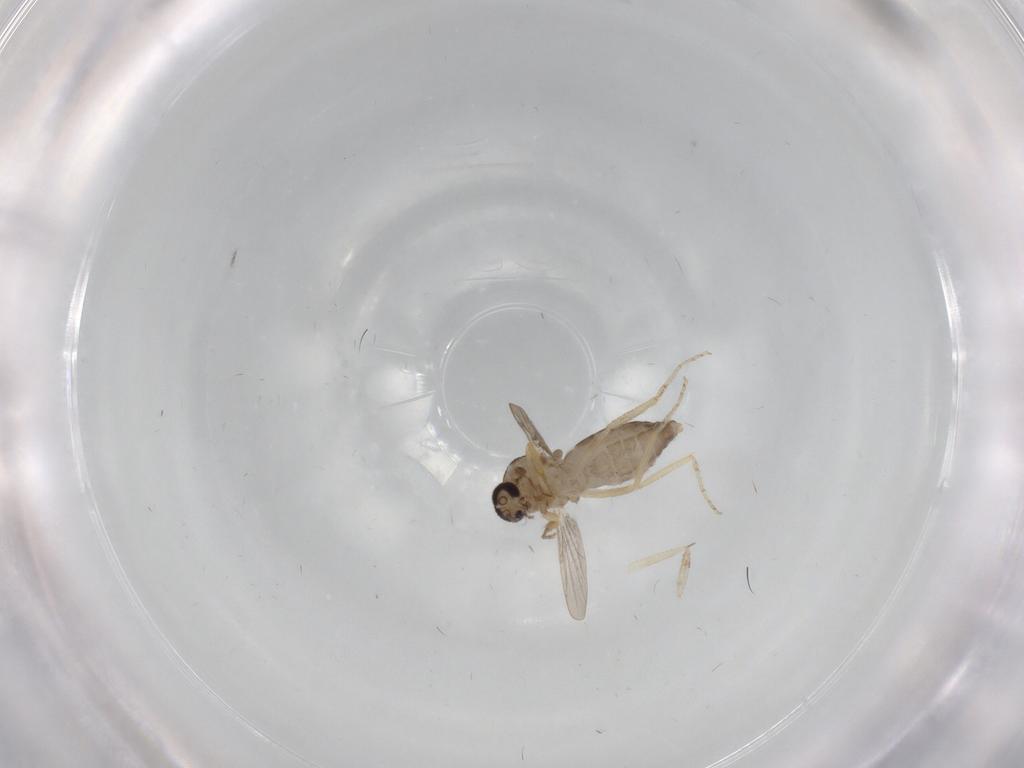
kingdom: Animalia
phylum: Arthropoda
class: Insecta
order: Diptera
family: Ceratopogonidae
